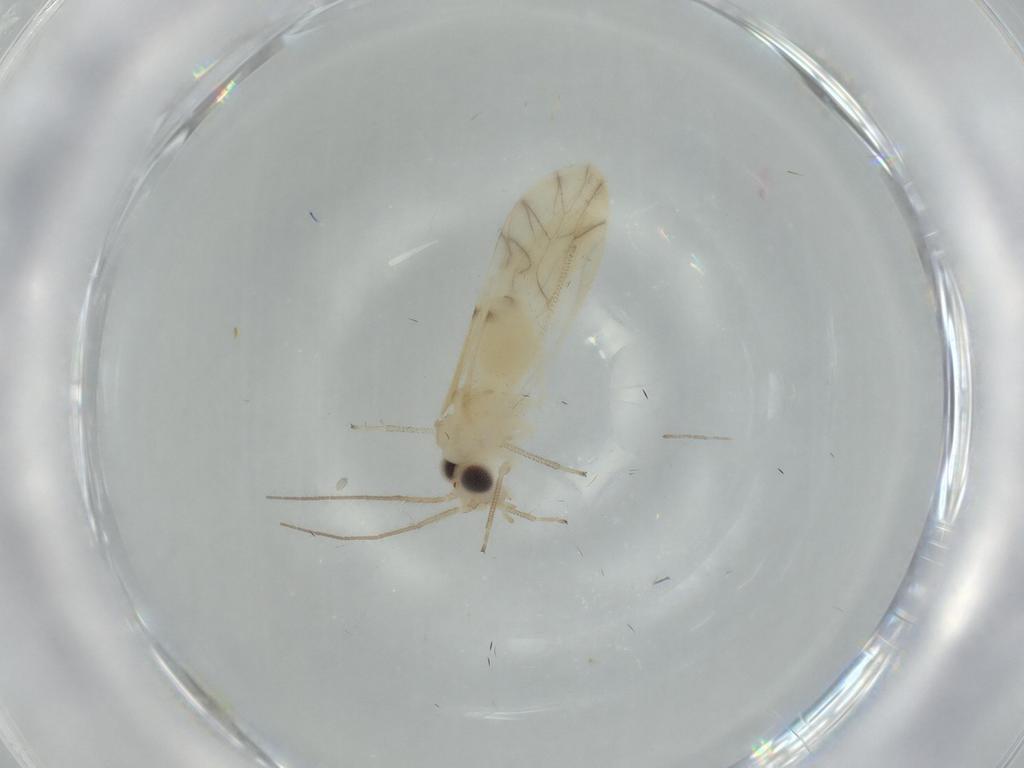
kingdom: Animalia
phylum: Arthropoda
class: Insecta
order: Psocodea
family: Caeciliusidae
